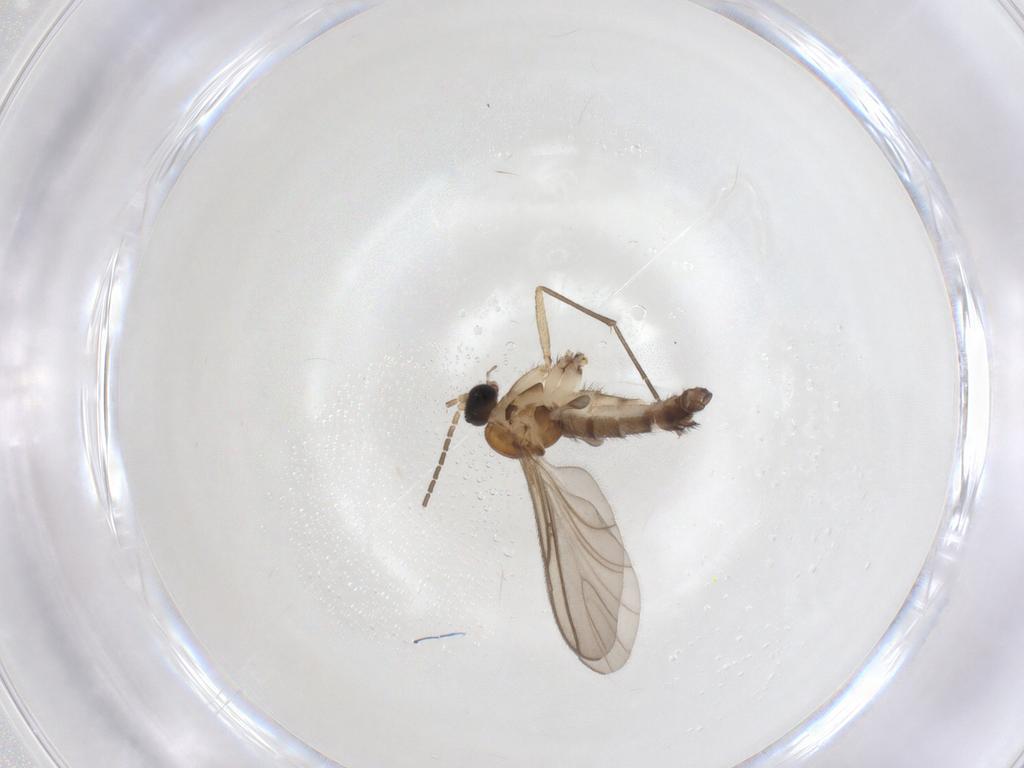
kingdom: Animalia
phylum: Arthropoda
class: Insecta
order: Diptera
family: Sciaridae
